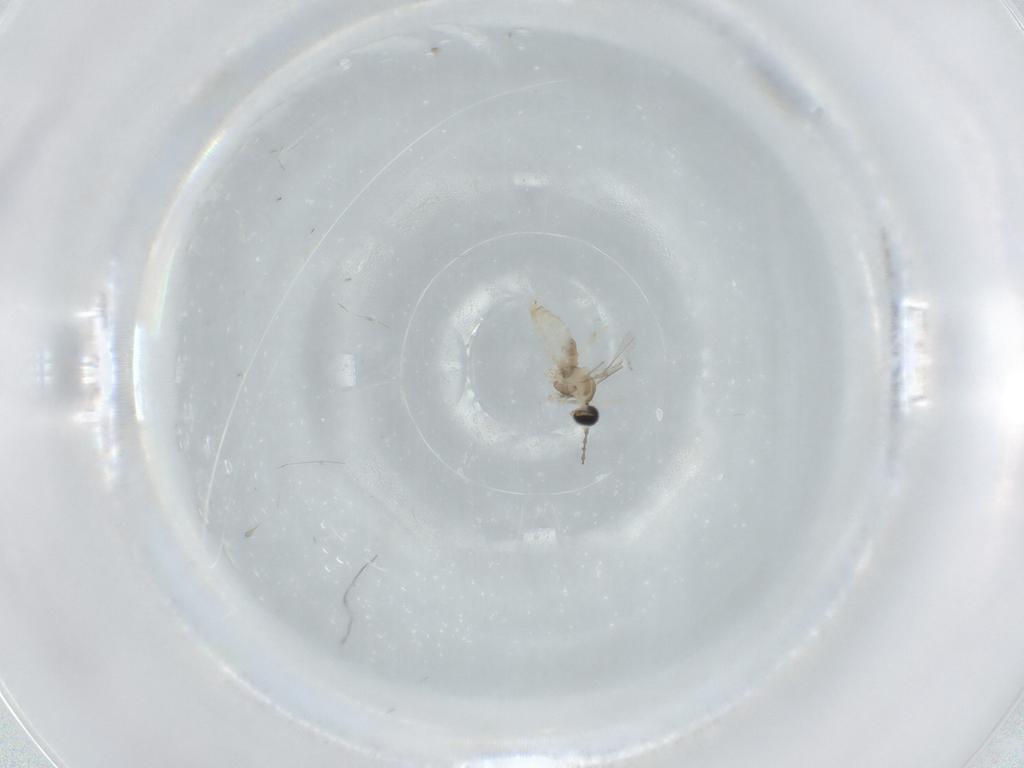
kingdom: Animalia
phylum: Arthropoda
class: Insecta
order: Diptera
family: Cecidomyiidae
